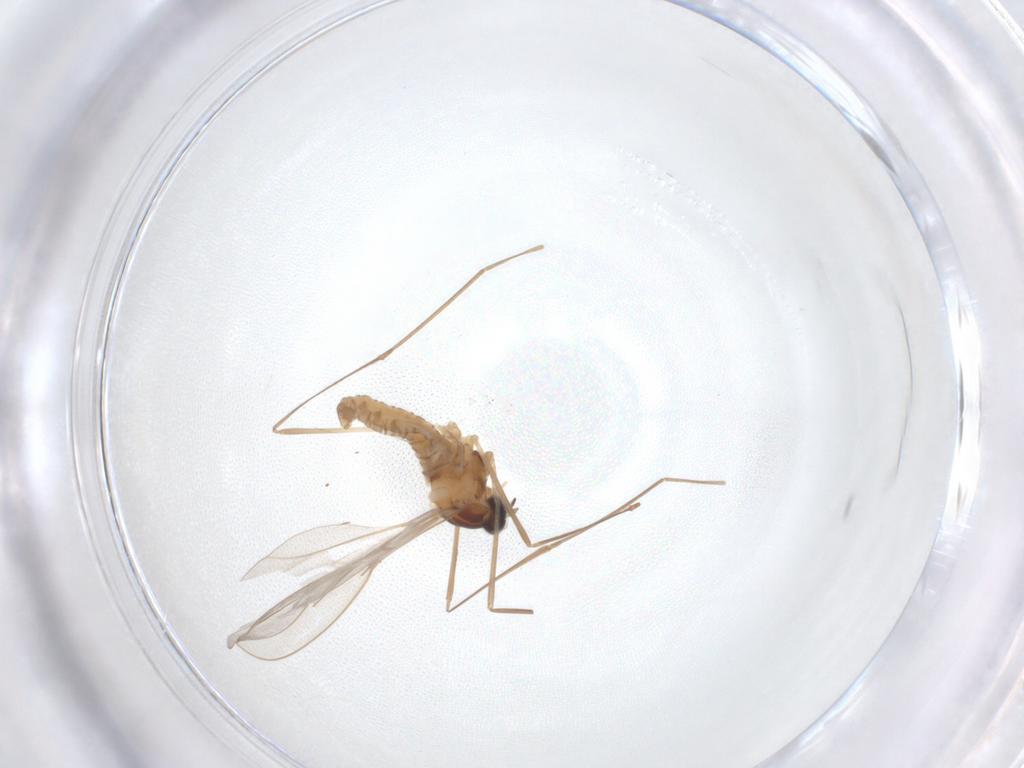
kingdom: Animalia
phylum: Arthropoda
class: Insecta
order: Diptera
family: Cecidomyiidae
